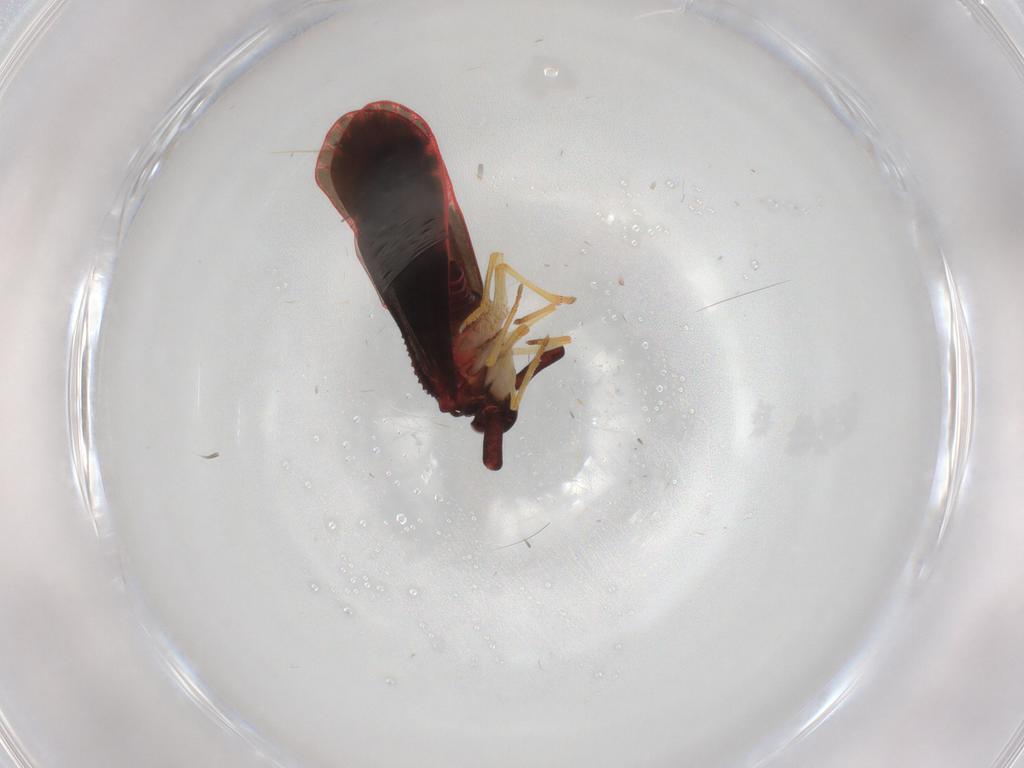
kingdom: Animalia
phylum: Arthropoda
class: Insecta
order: Hemiptera
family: Derbidae
